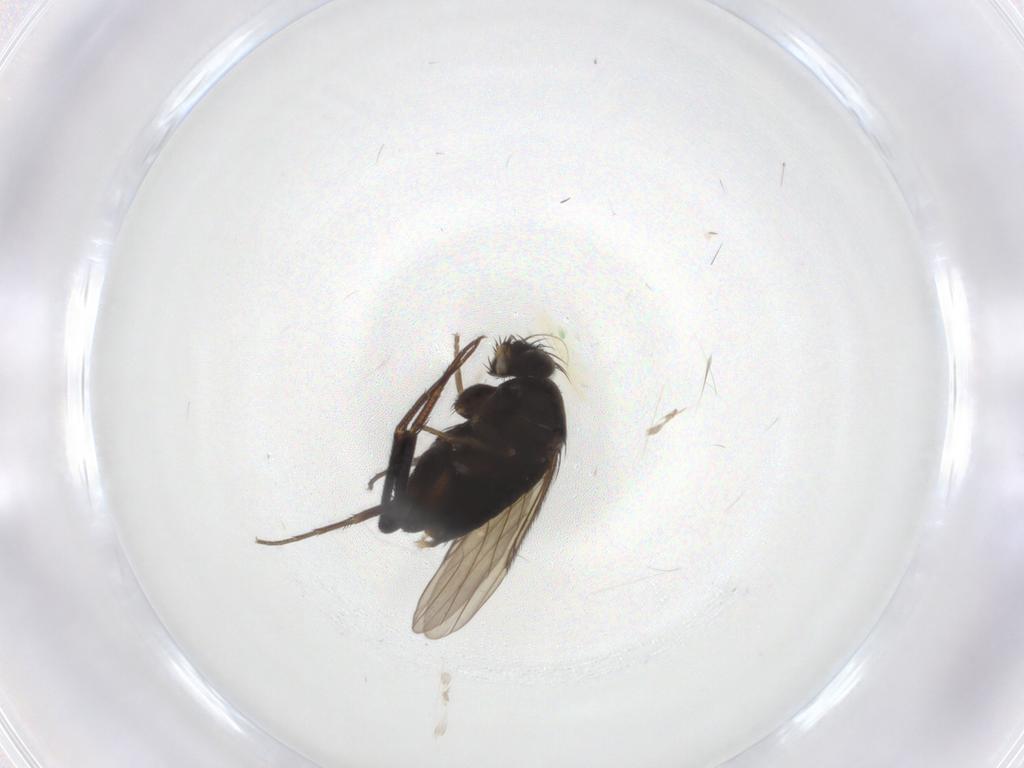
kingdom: Animalia
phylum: Arthropoda
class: Insecta
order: Diptera
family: Phoridae
